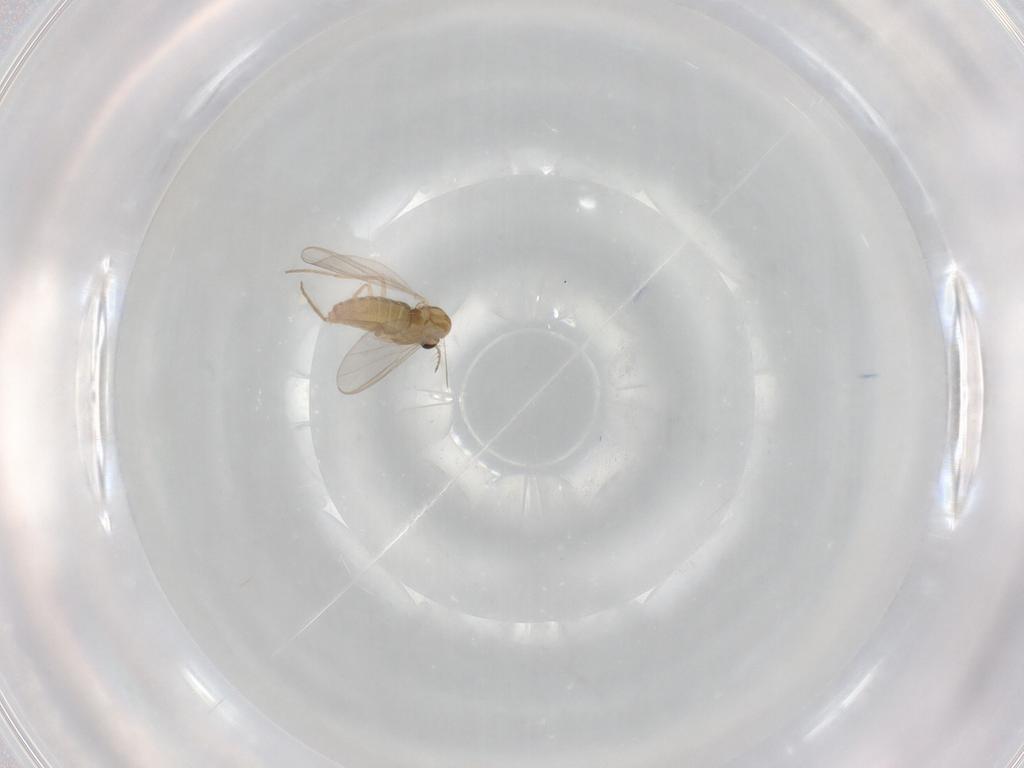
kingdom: Animalia
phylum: Arthropoda
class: Insecta
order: Diptera
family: Chironomidae
